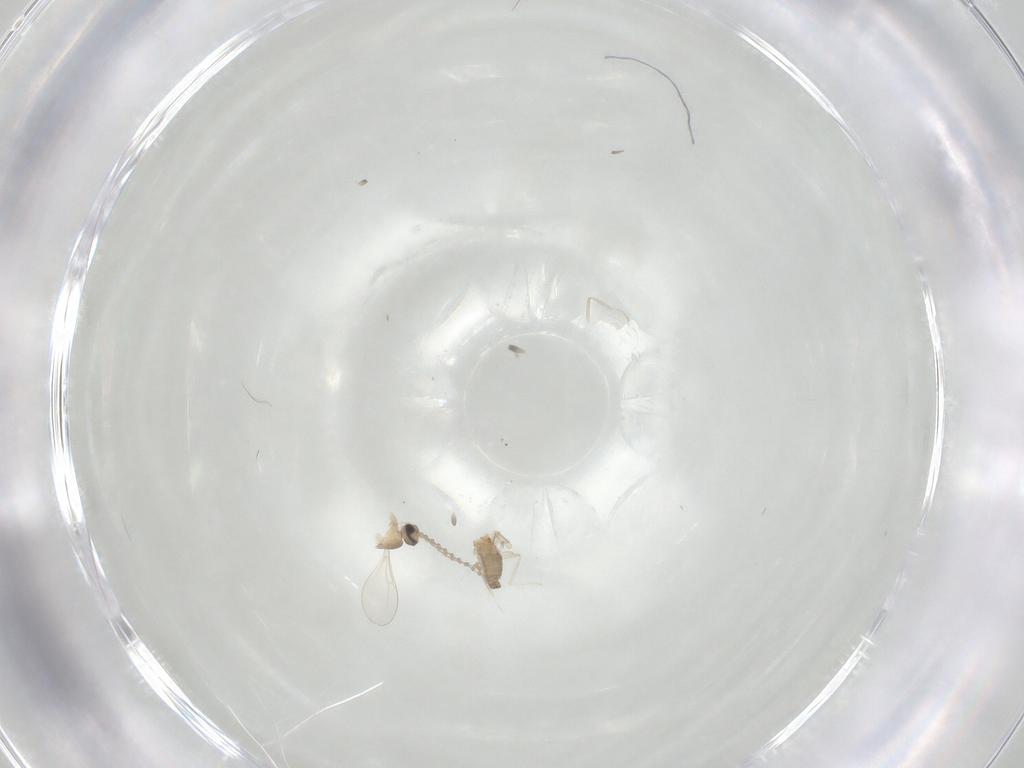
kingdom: Animalia
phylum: Arthropoda
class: Insecta
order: Diptera
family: Cecidomyiidae
